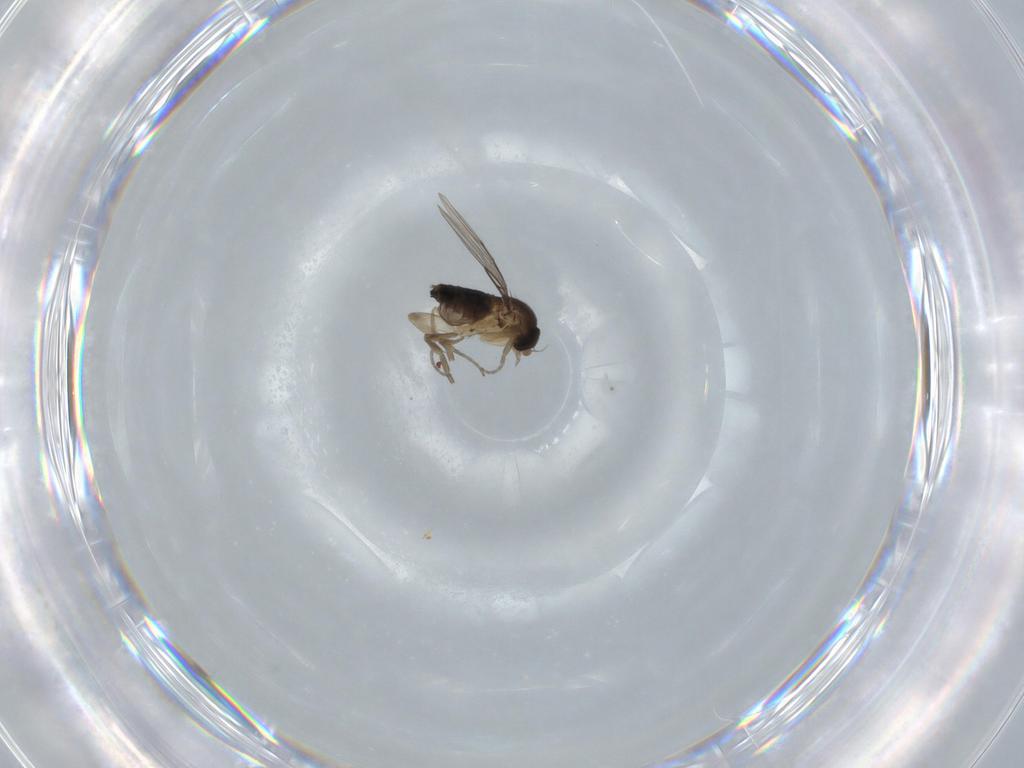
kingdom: Animalia
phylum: Arthropoda
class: Insecta
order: Diptera
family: Phoridae
